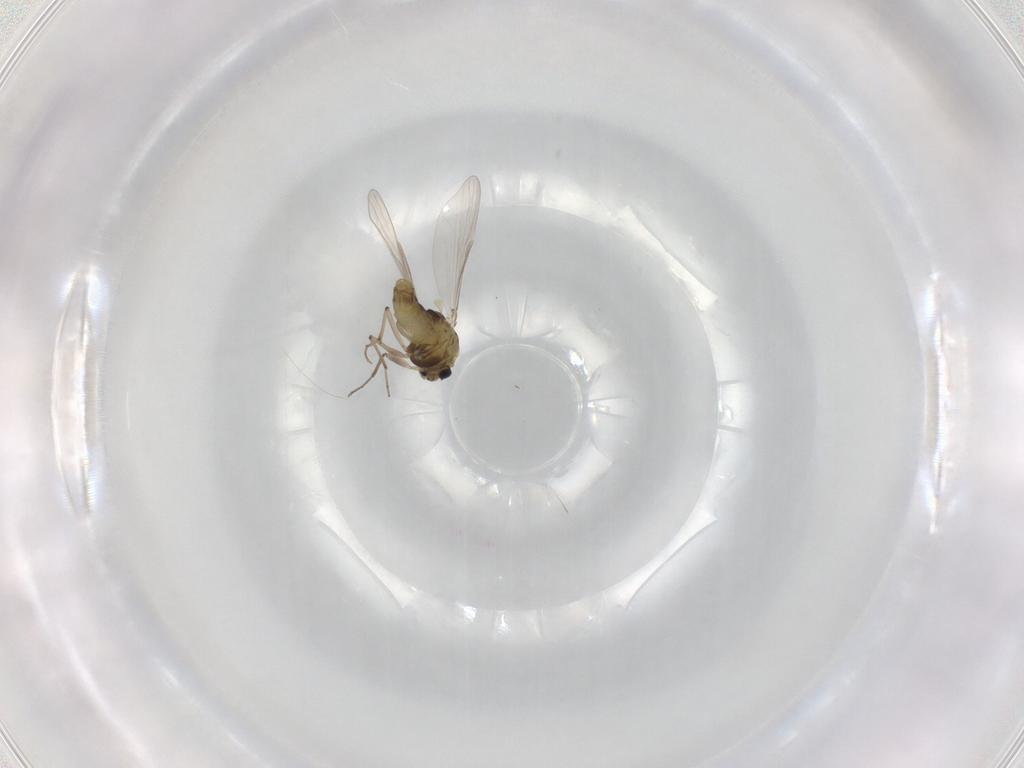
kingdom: Animalia
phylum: Arthropoda
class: Insecta
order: Diptera
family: Chironomidae
